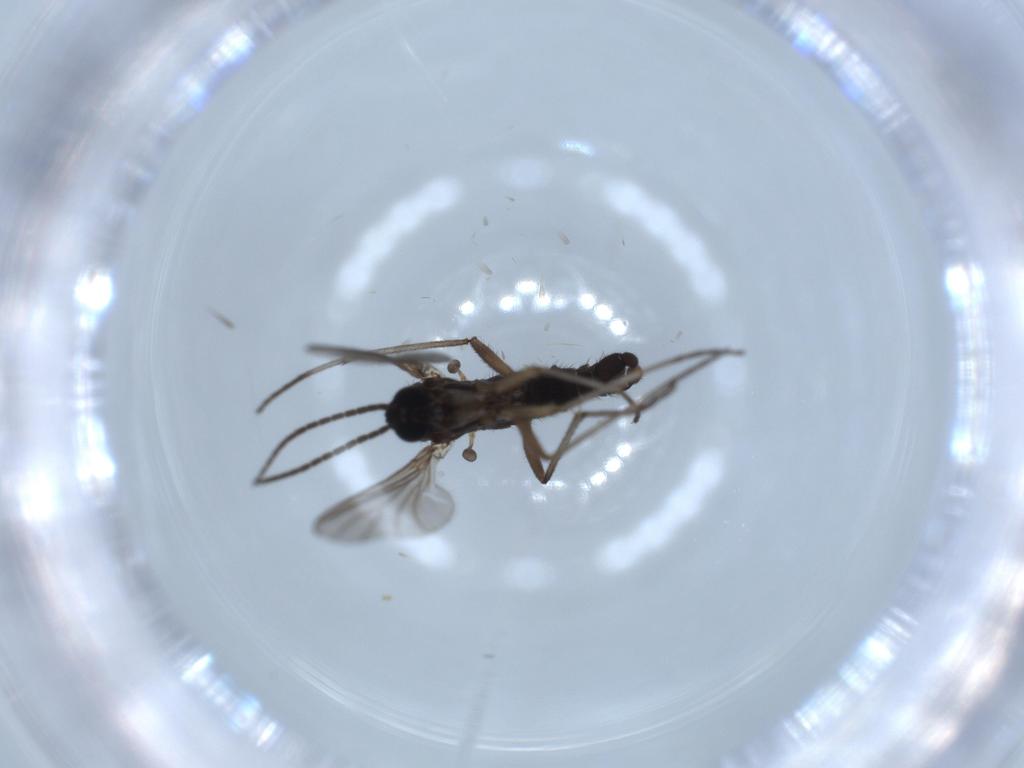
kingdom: Animalia
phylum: Arthropoda
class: Insecta
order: Diptera
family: Sciaridae
